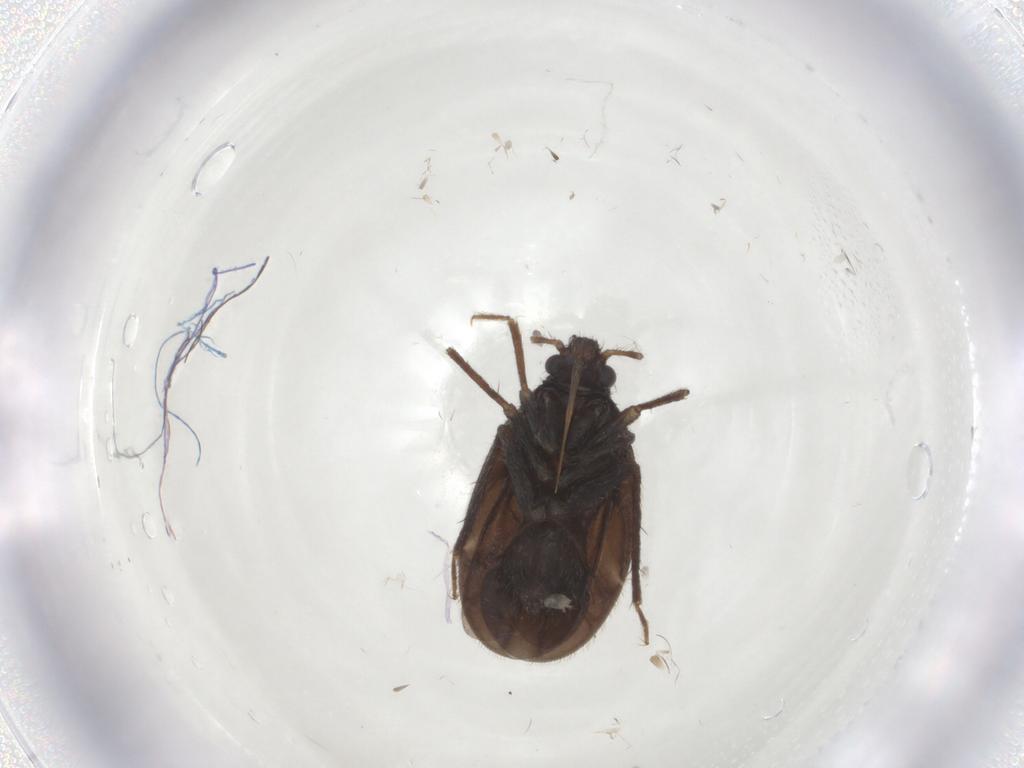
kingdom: Animalia
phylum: Arthropoda
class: Insecta
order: Hemiptera
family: Ceratocombidae
